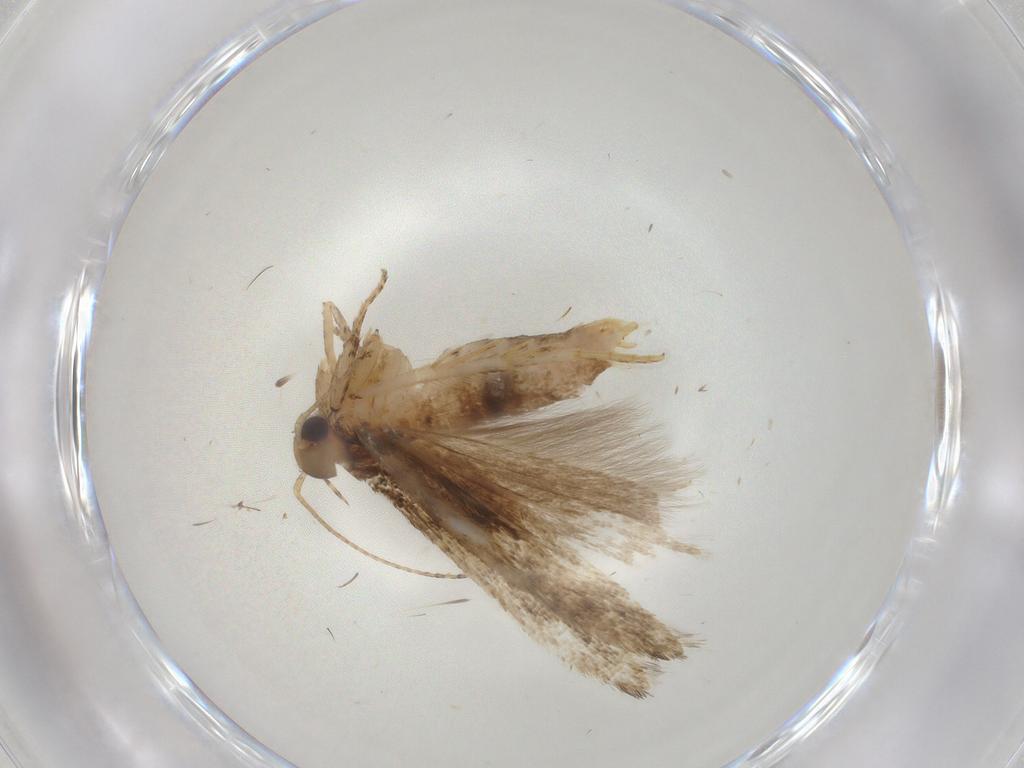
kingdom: Animalia
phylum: Arthropoda
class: Insecta
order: Lepidoptera
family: Gelechiidae
